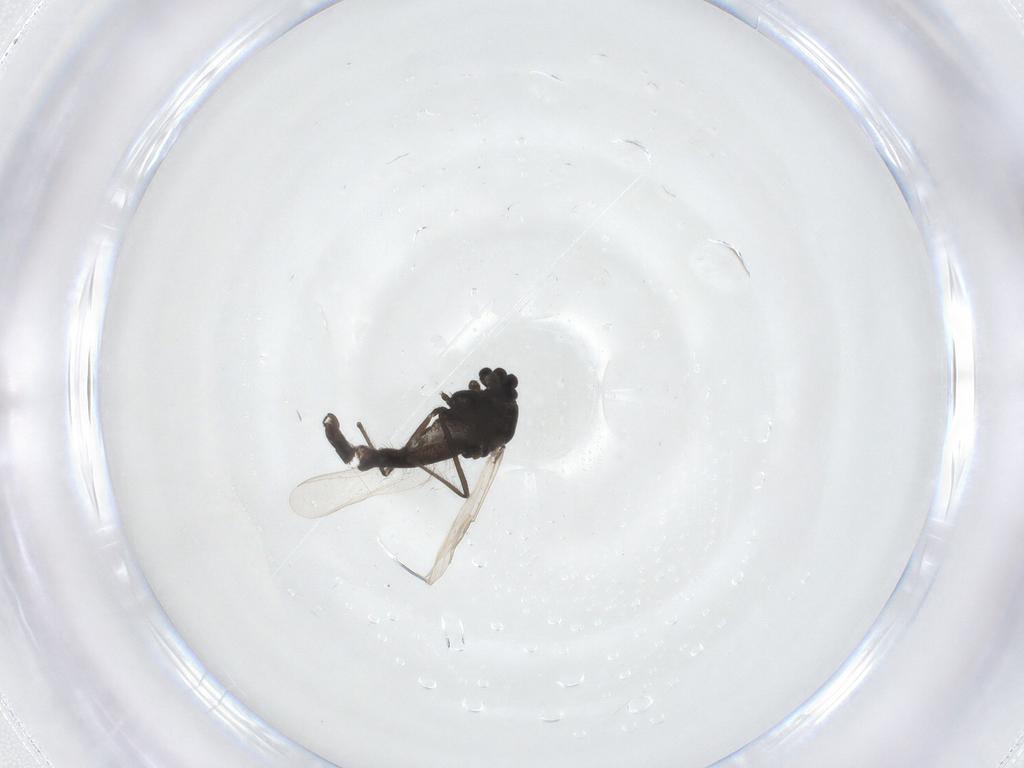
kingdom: Animalia
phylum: Arthropoda
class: Insecta
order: Diptera
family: Chironomidae
